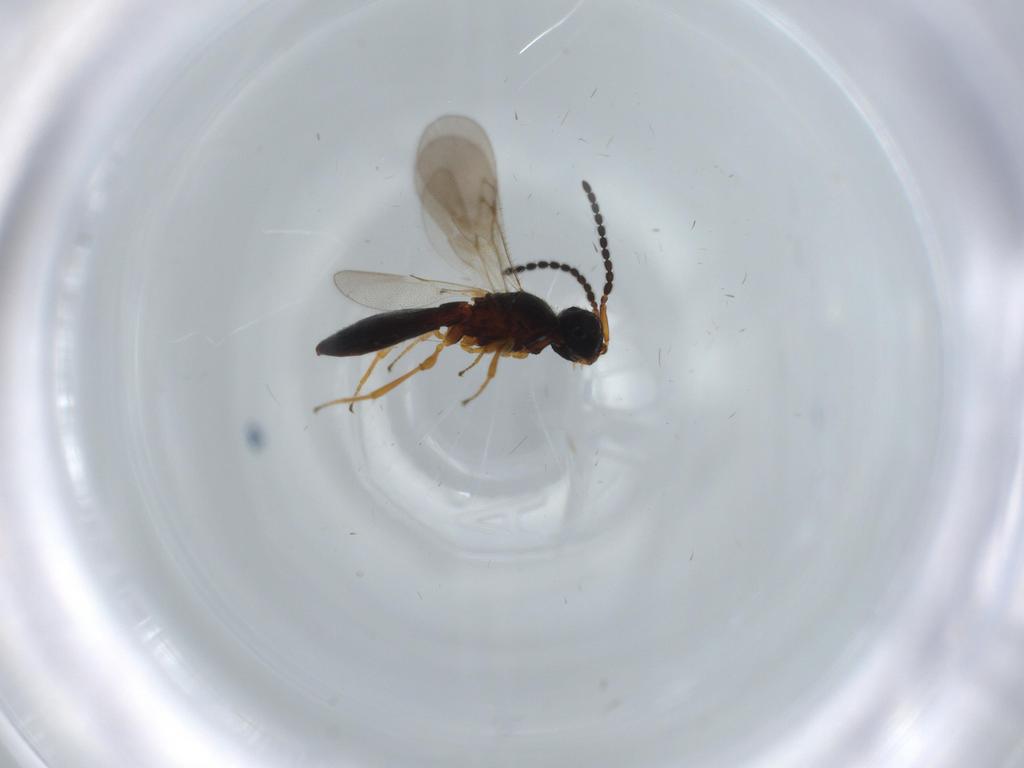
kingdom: Animalia
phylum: Arthropoda
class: Insecta
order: Hymenoptera
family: Scelionidae
